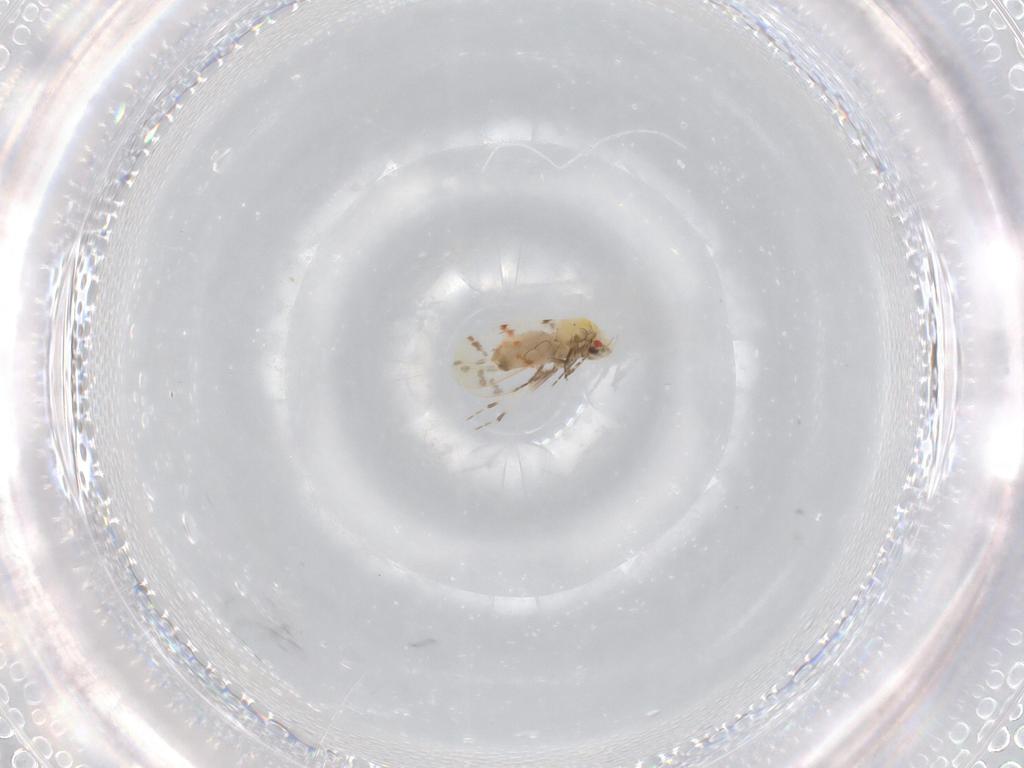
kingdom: Animalia
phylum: Arthropoda
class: Insecta
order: Hemiptera
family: Aleyrodidae
